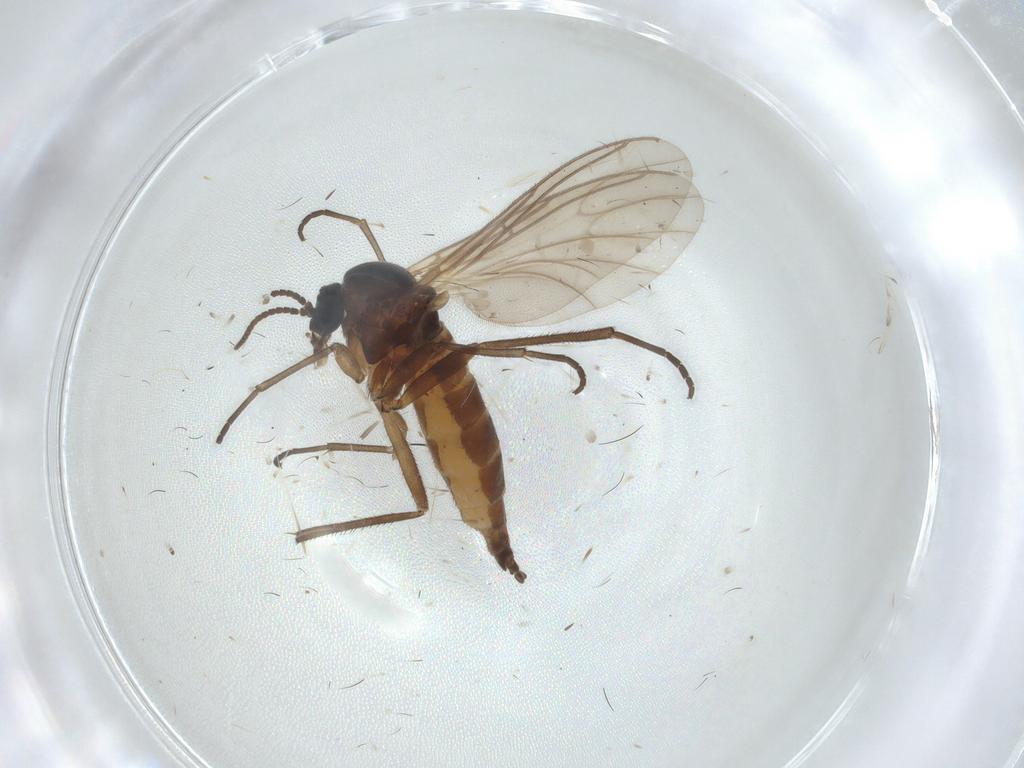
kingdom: Animalia
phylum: Arthropoda
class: Insecta
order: Diptera
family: Sciaridae
